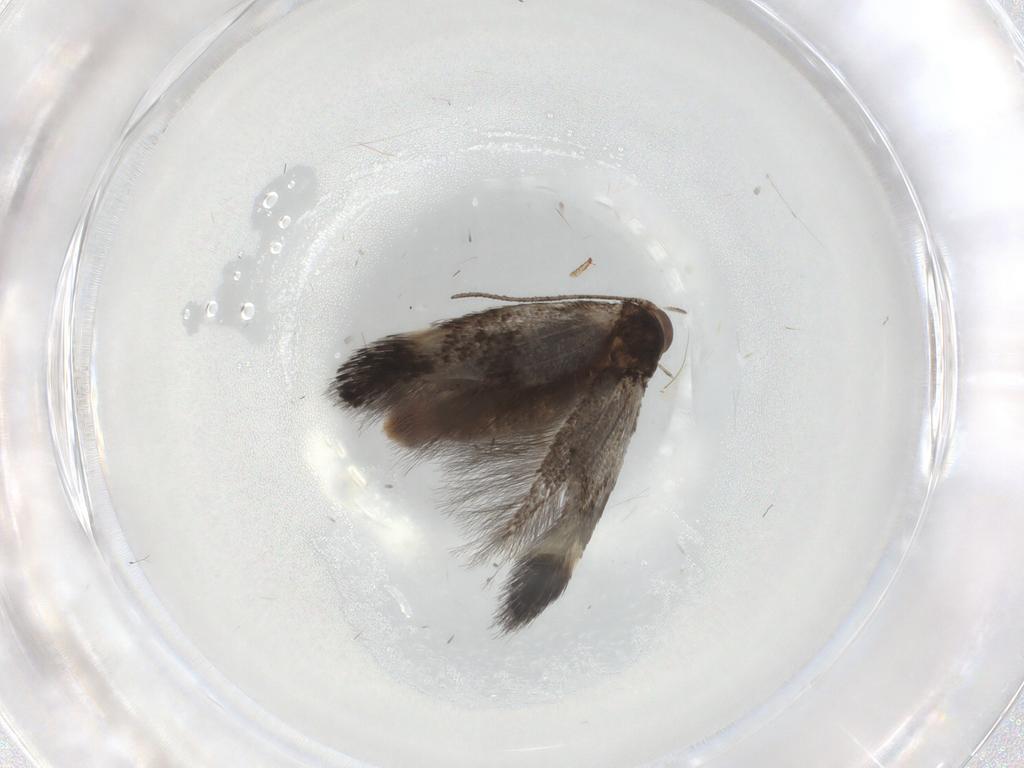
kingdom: Animalia
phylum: Arthropoda
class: Insecta
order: Lepidoptera
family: Elachistidae
